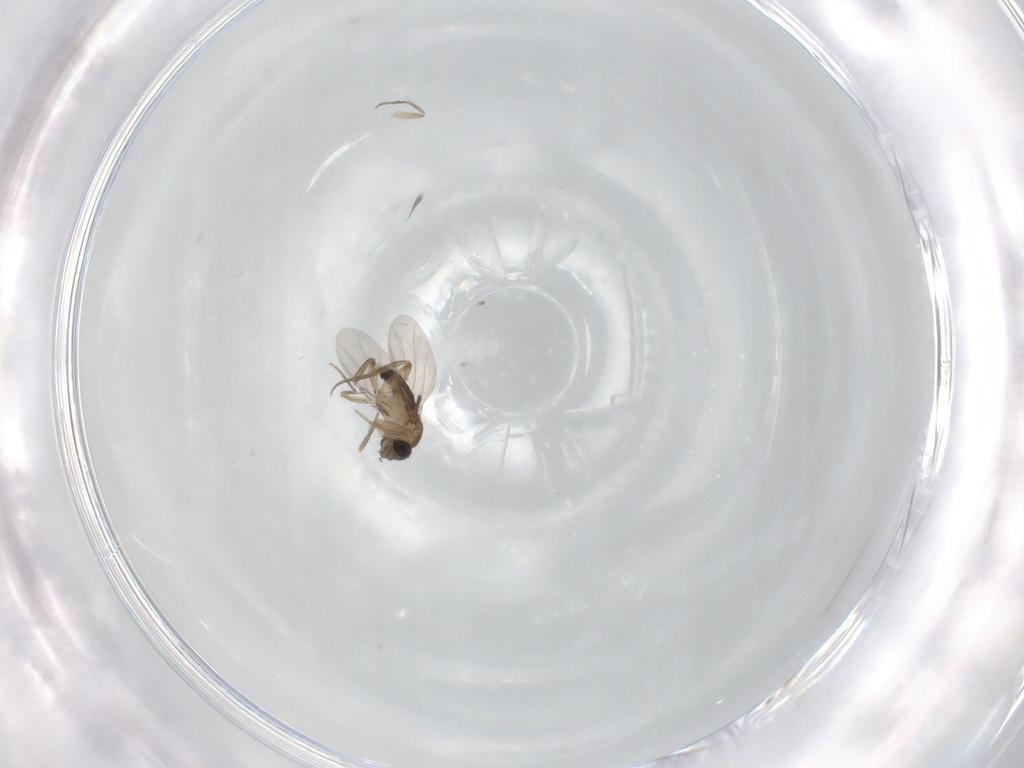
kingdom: Animalia
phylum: Arthropoda
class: Insecta
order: Diptera
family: Phoridae
